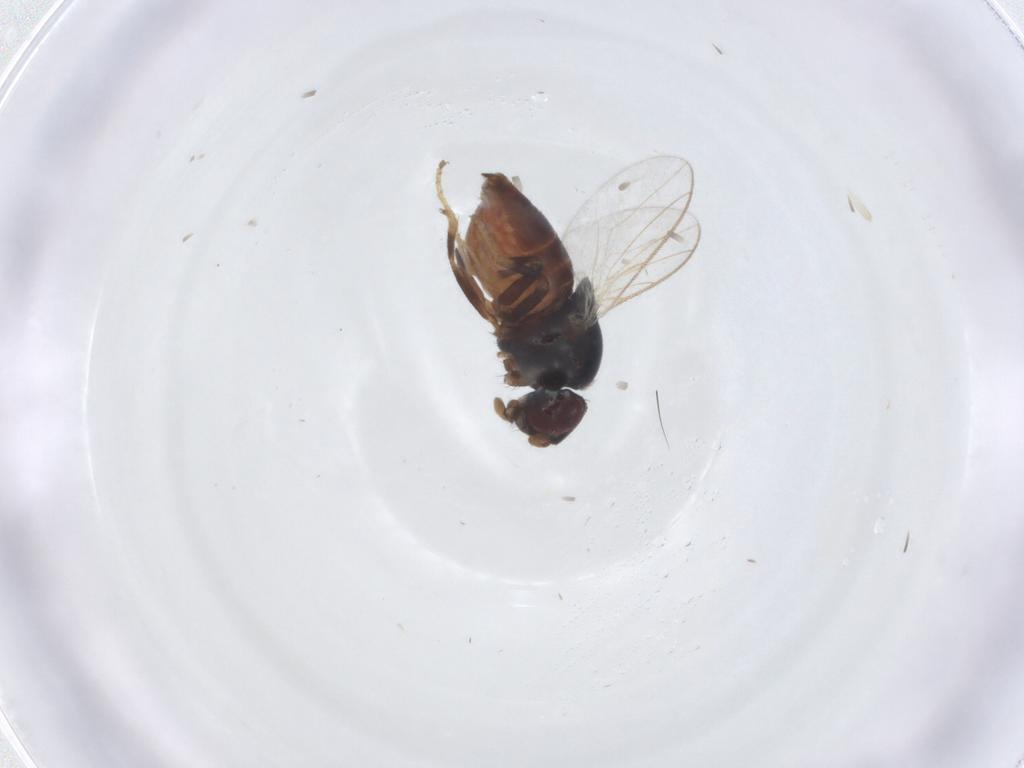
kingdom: Animalia
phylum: Arthropoda
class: Insecta
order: Diptera
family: Chloropidae
